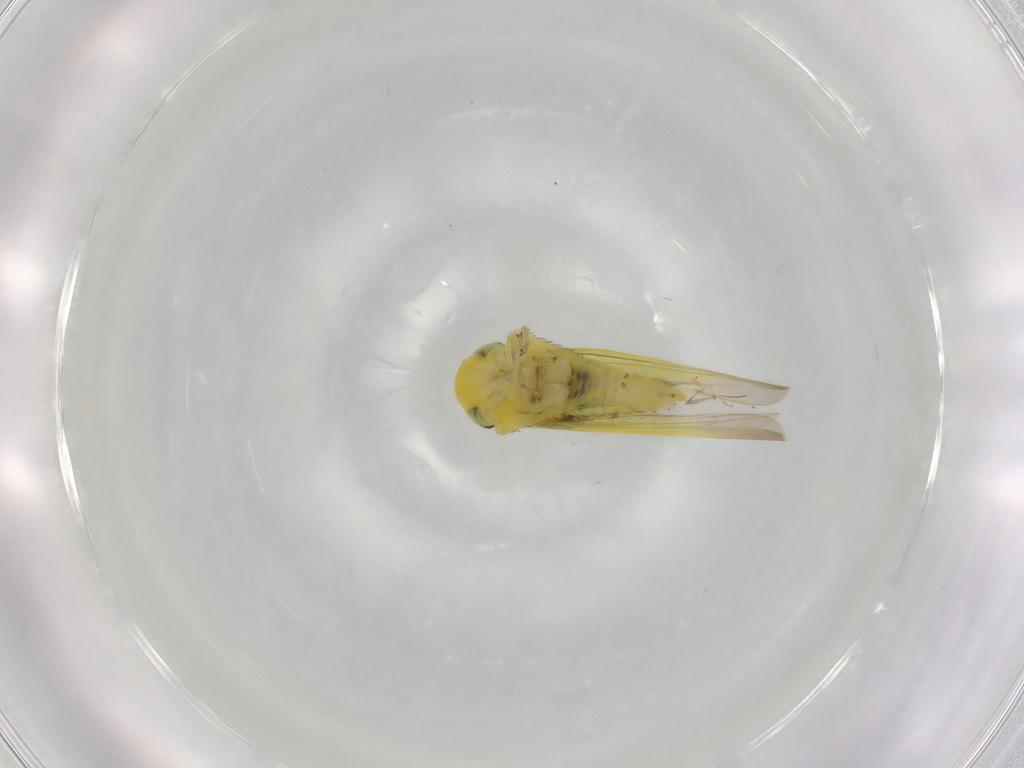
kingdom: Animalia
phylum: Arthropoda
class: Insecta
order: Hemiptera
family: Cicadellidae
